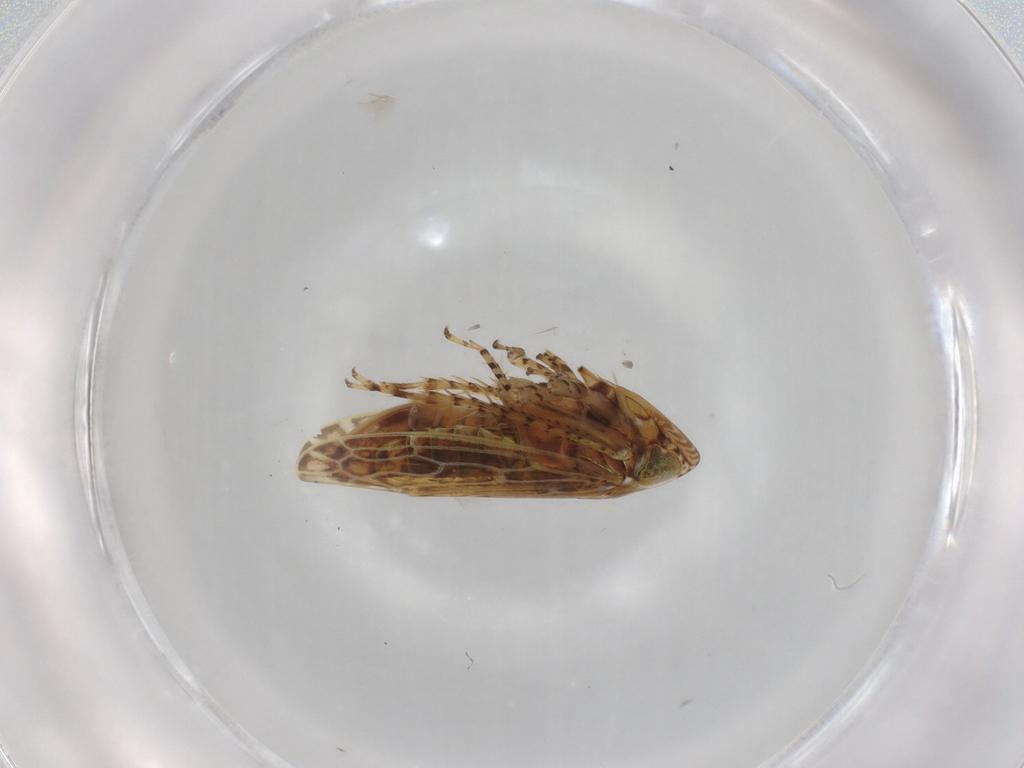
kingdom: Animalia
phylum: Arthropoda
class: Insecta
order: Hemiptera
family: Cicadellidae
